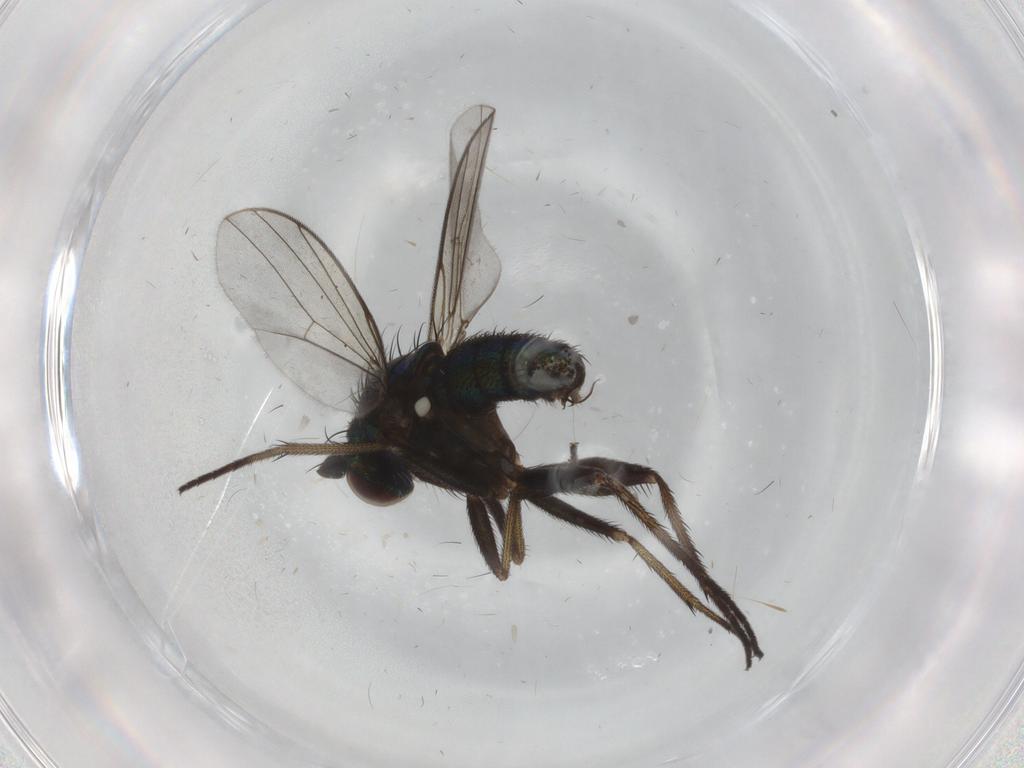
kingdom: Animalia
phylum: Arthropoda
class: Insecta
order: Diptera
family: Dolichopodidae
